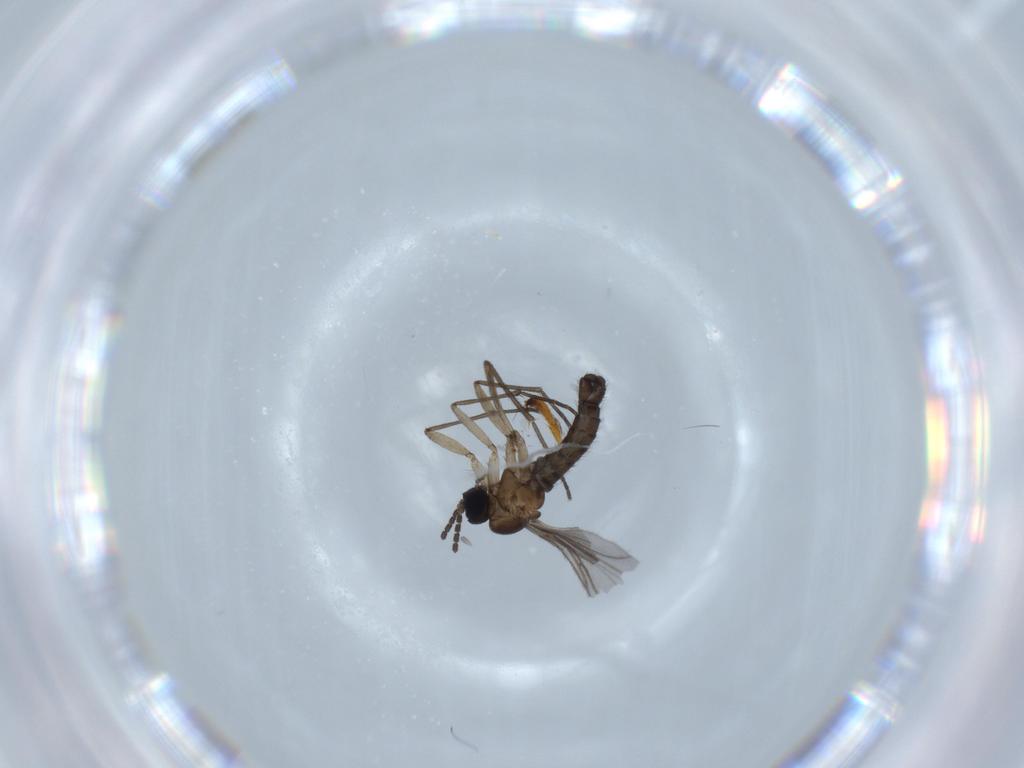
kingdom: Animalia
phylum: Arthropoda
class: Insecta
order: Diptera
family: Sciaridae
